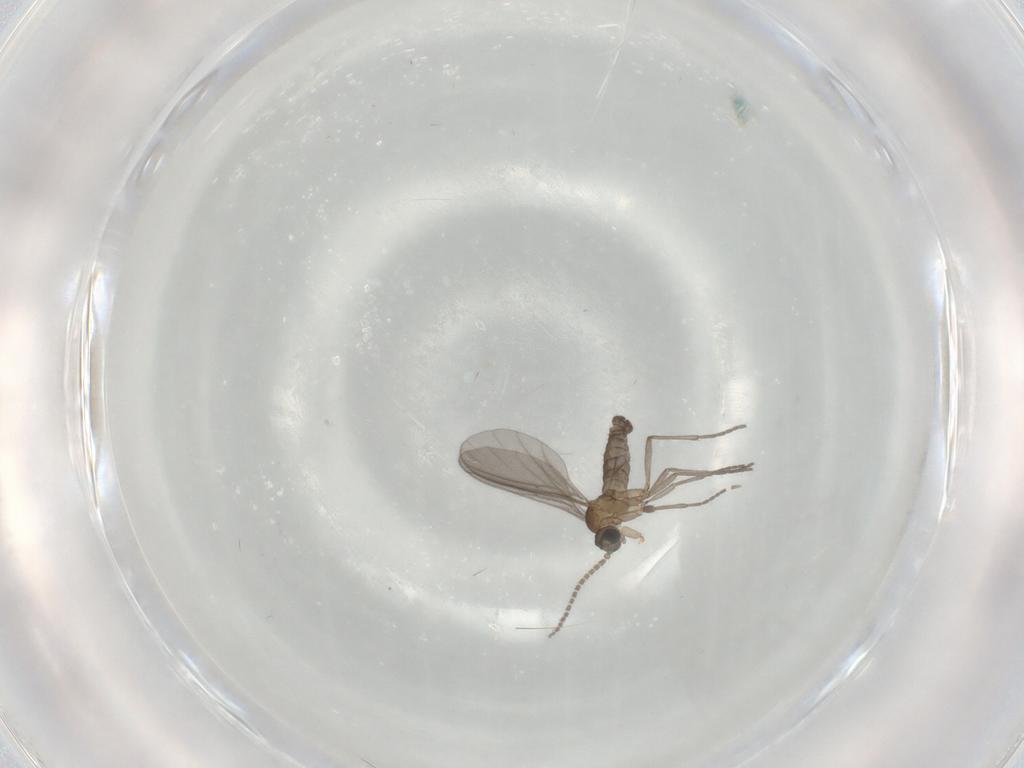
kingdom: Animalia
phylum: Arthropoda
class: Insecta
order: Diptera
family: Sciaridae
